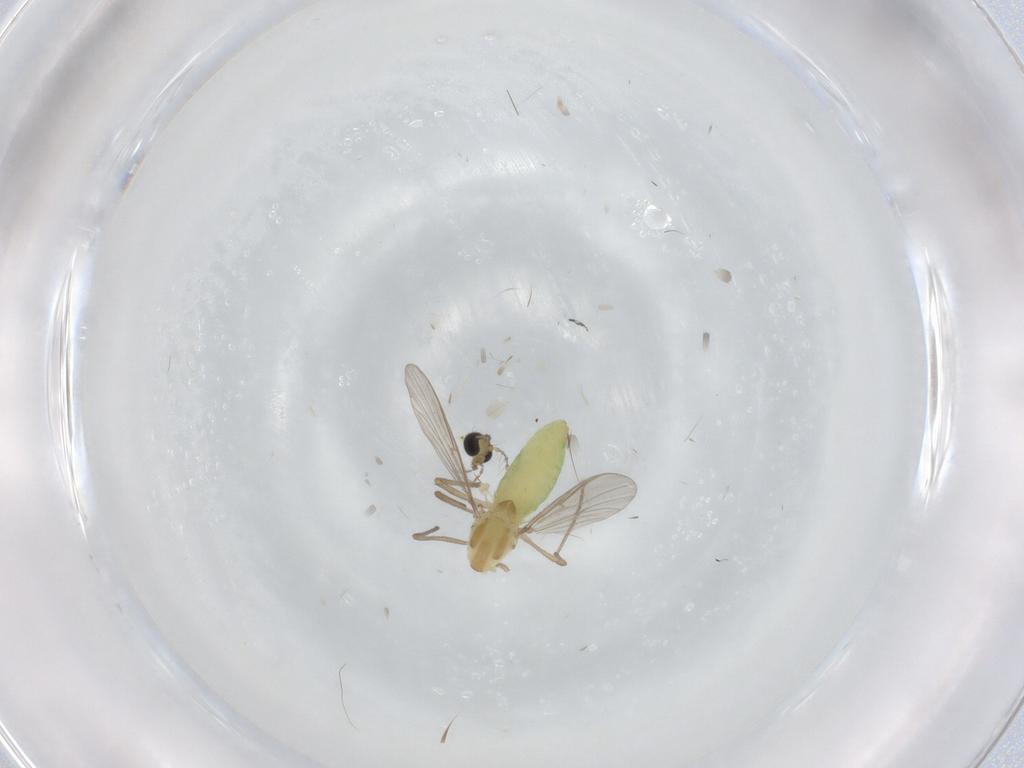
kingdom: Animalia
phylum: Arthropoda
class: Insecta
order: Diptera
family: Chironomidae
